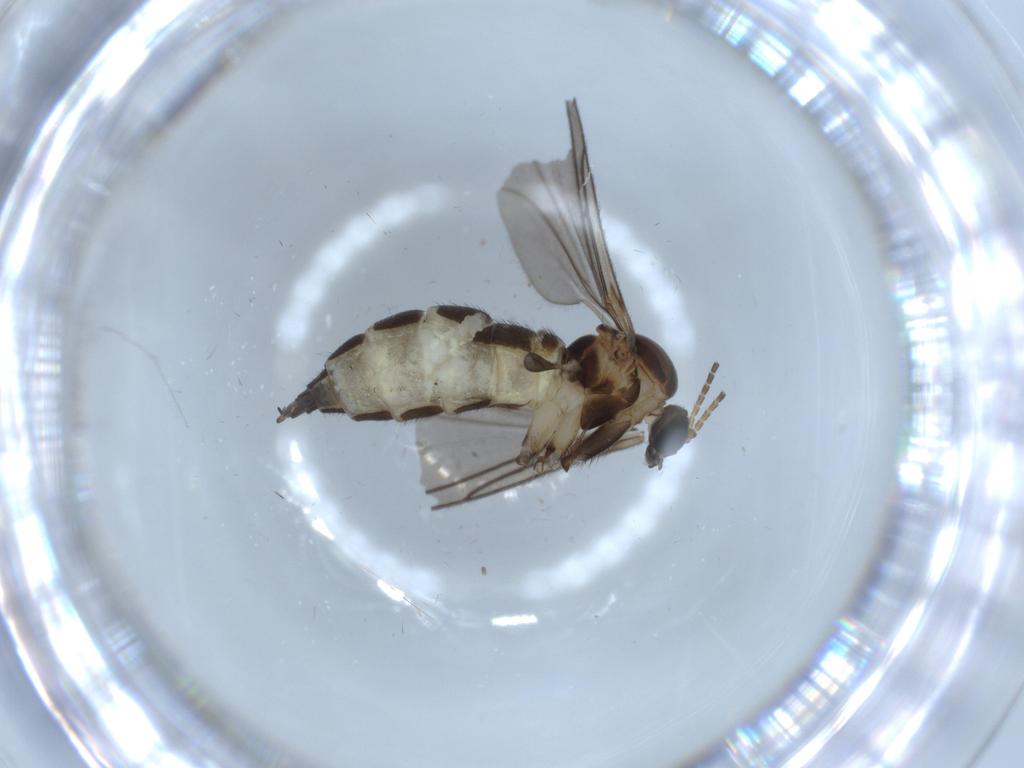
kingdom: Animalia
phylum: Arthropoda
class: Insecta
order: Diptera
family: Sciaridae
